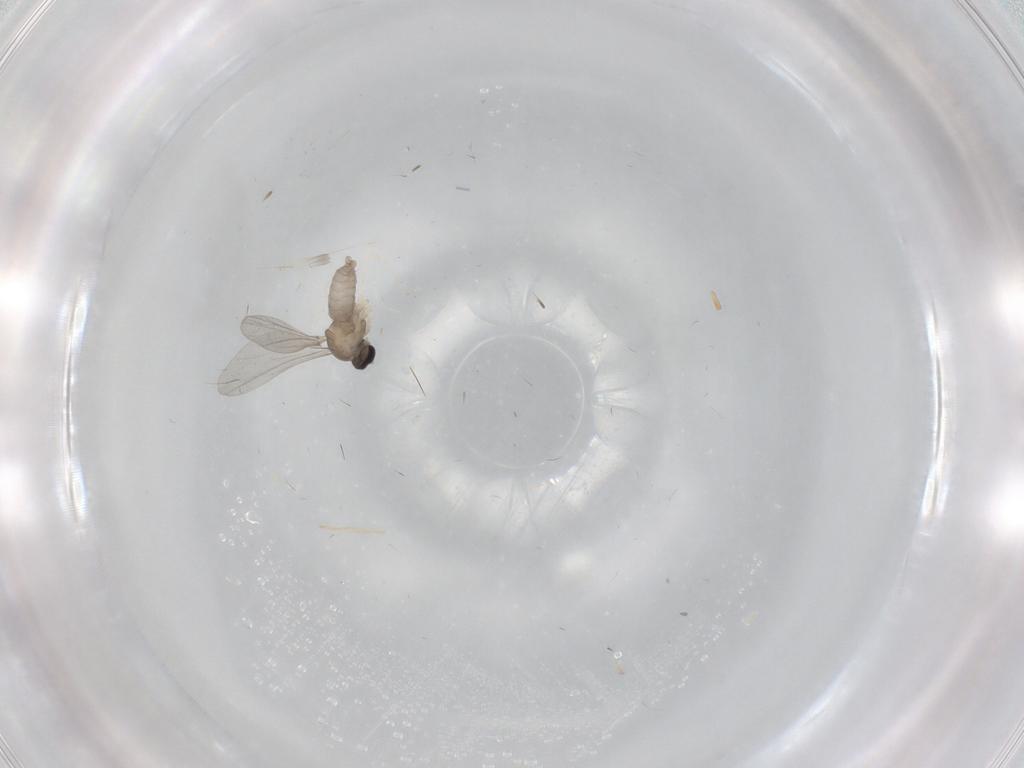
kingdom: Animalia
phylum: Arthropoda
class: Insecta
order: Diptera
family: Cecidomyiidae
